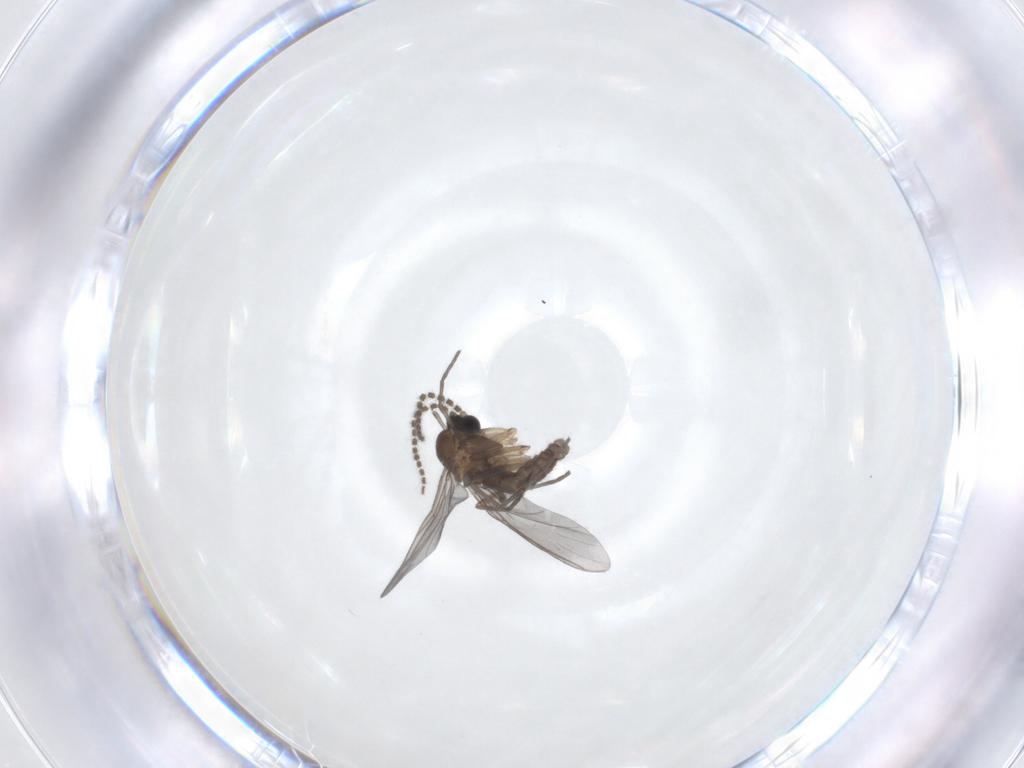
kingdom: Animalia
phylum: Arthropoda
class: Insecta
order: Diptera
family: Sciaridae
